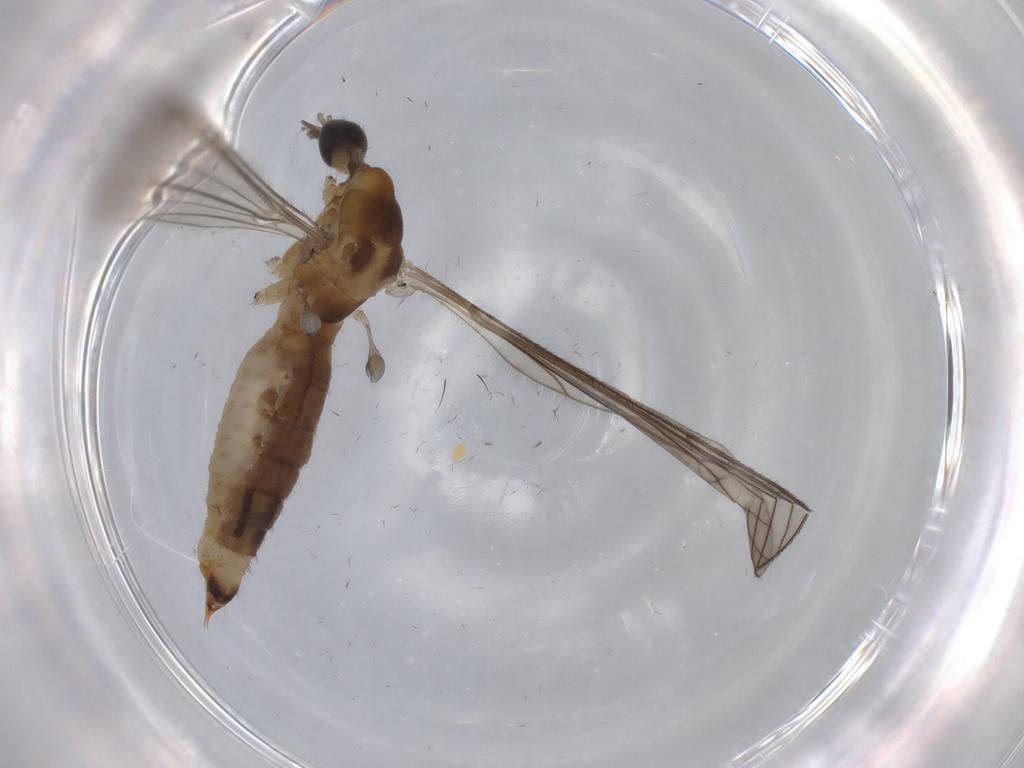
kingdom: Animalia
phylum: Arthropoda
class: Insecta
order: Diptera
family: Limoniidae
